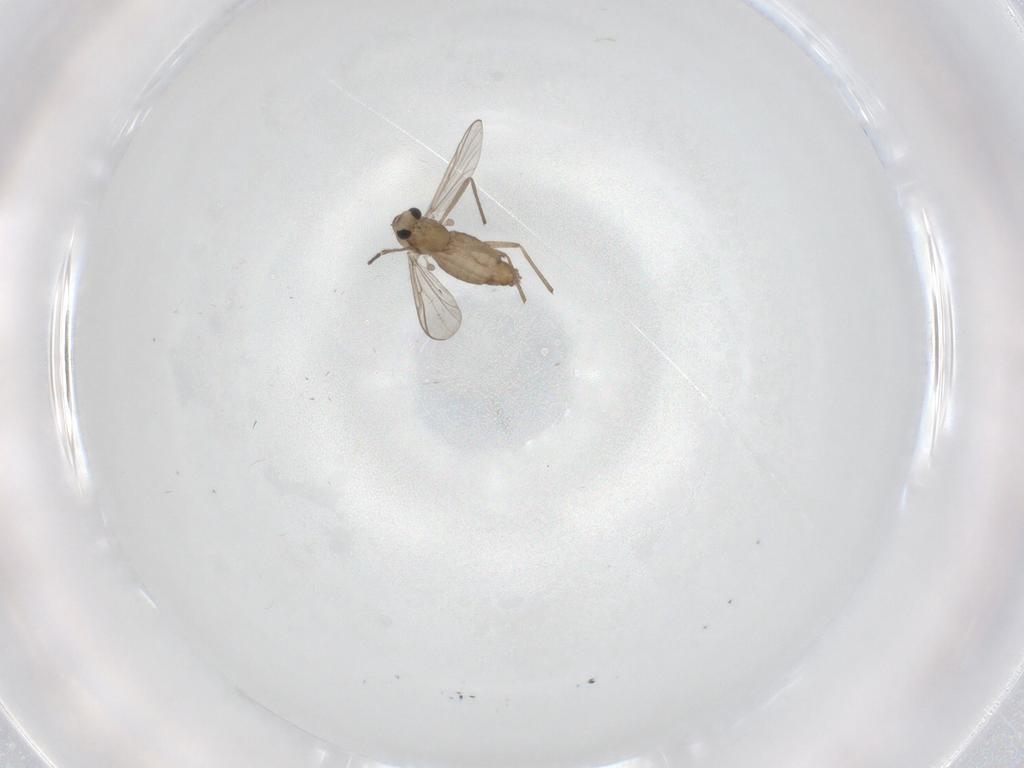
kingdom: Animalia
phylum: Arthropoda
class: Insecta
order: Diptera
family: Chironomidae
